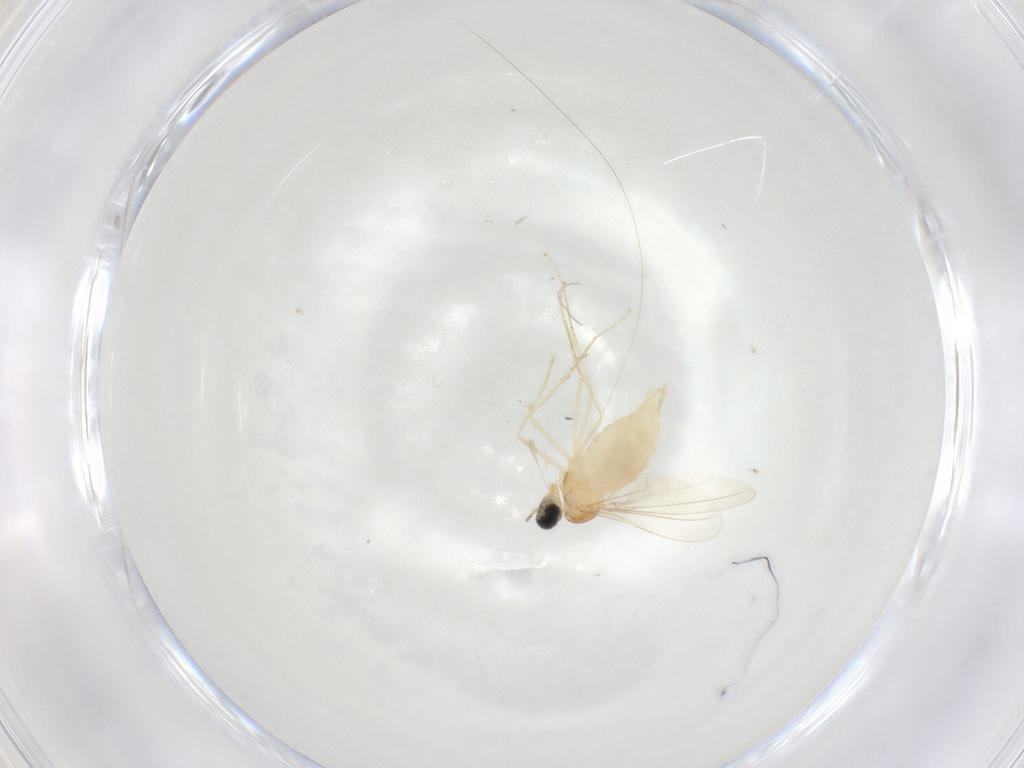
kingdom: Animalia
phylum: Arthropoda
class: Insecta
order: Diptera
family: Cecidomyiidae
